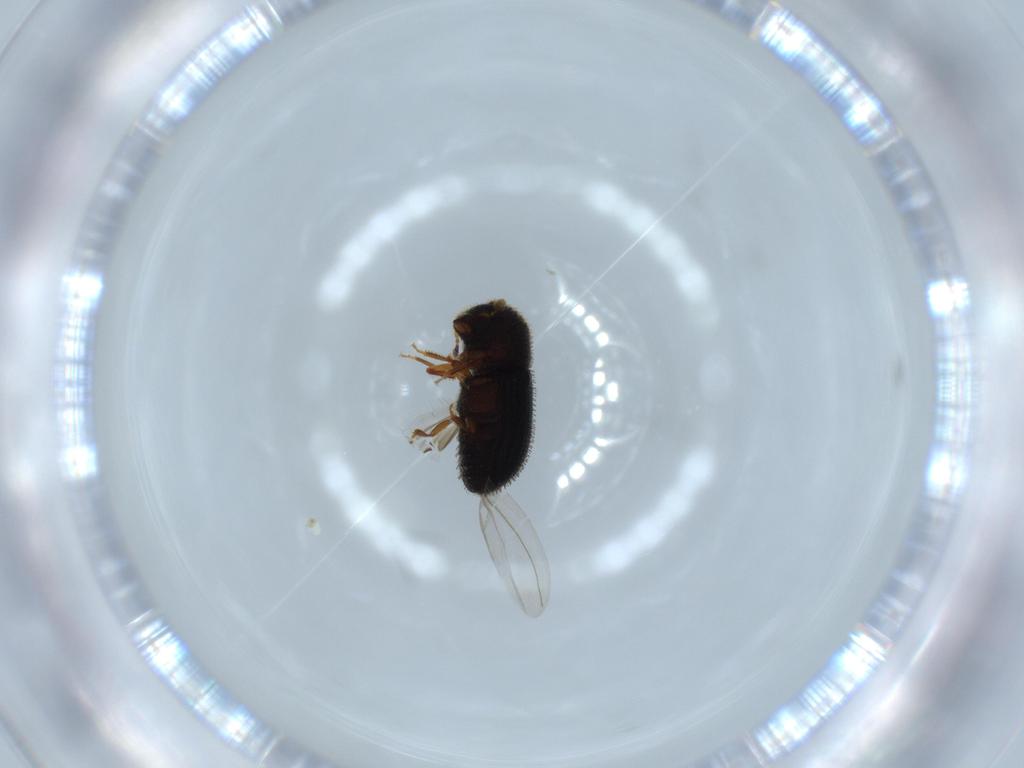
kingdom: Animalia
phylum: Arthropoda
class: Insecta
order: Coleoptera
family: Curculionidae
